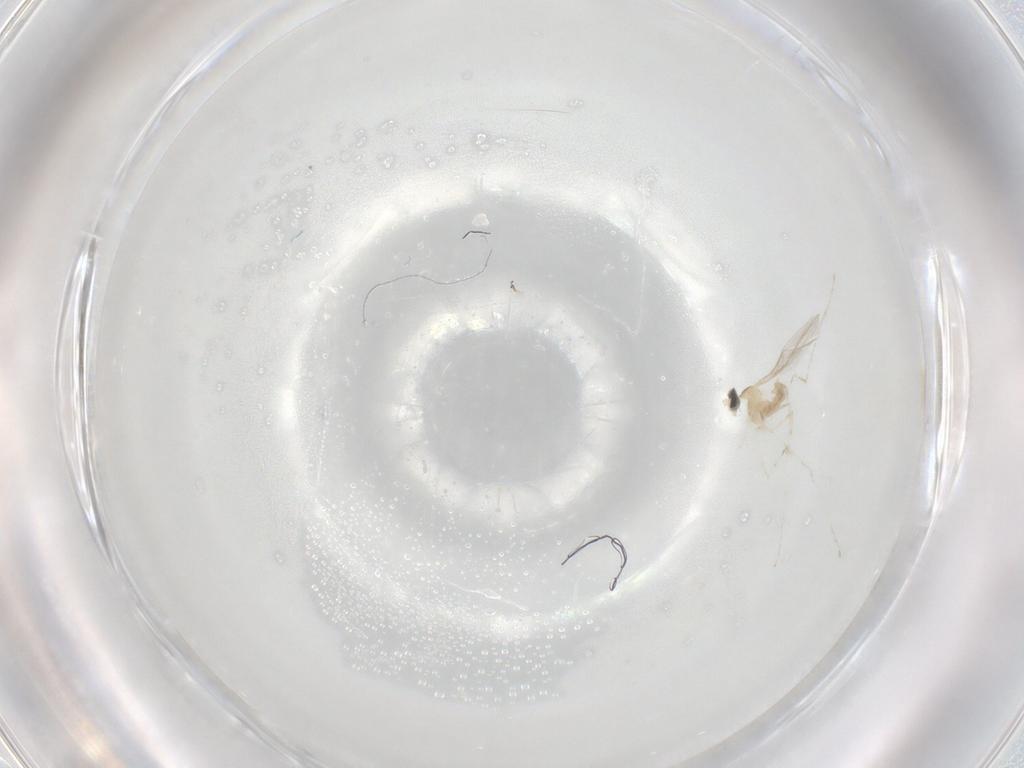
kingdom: Animalia
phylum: Arthropoda
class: Insecta
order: Diptera
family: Cecidomyiidae
